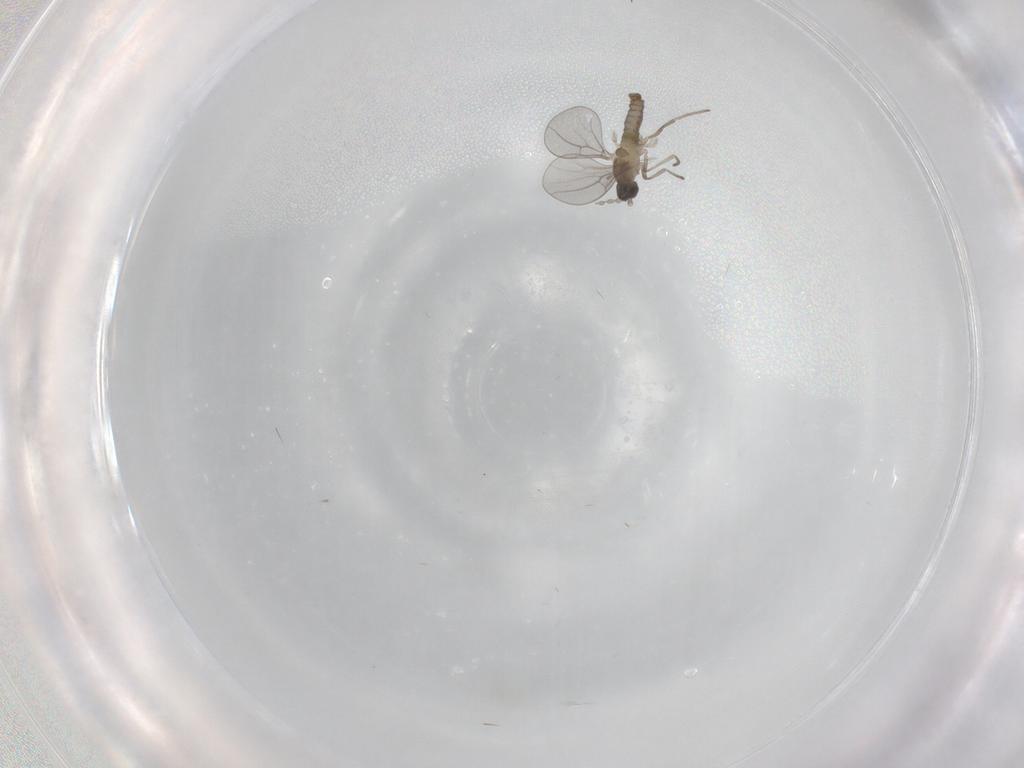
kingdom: Animalia
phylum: Arthropoda
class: Insecta
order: Diptera
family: Cecidomyiidae
